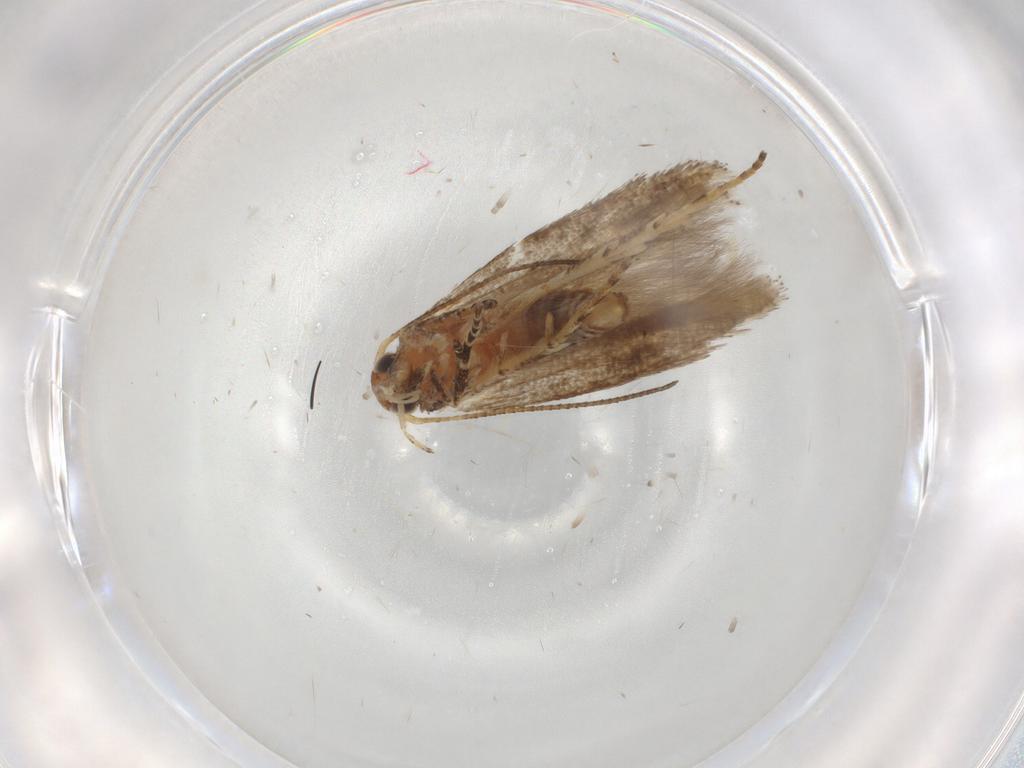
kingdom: Animalia
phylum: Arthropoda
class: Insecta
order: Lepidoptera
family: Gelechiidae
